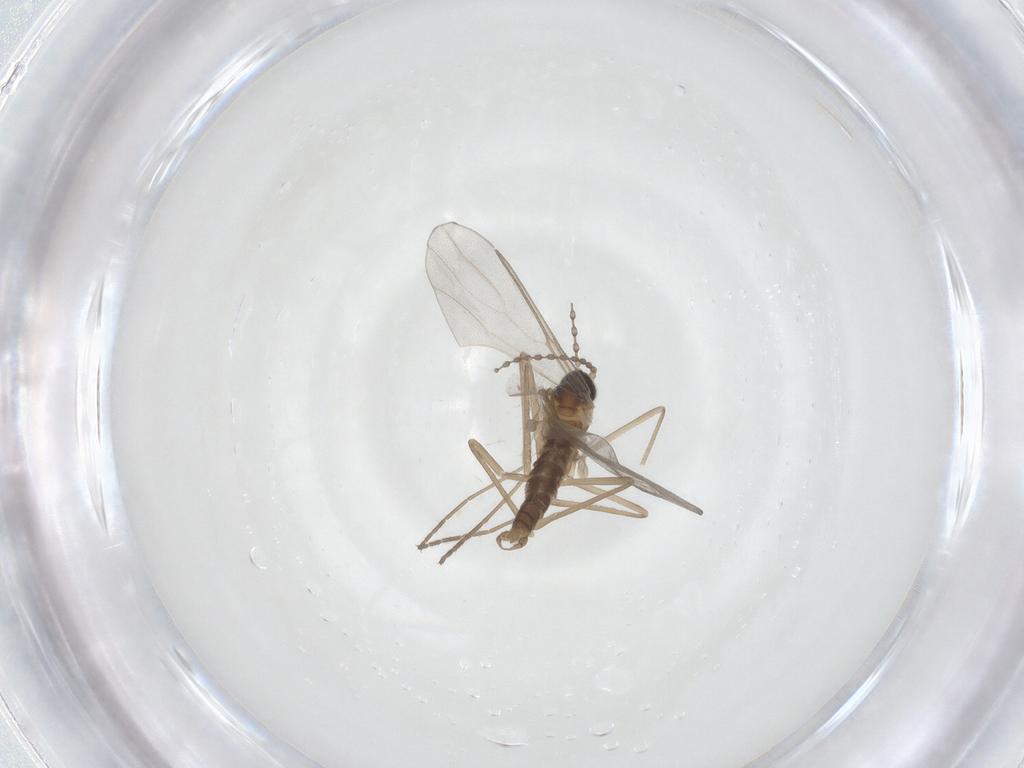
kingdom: Animalia
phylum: Arthropoda
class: Insecta
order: Diptera
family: Cecidomyiidae
